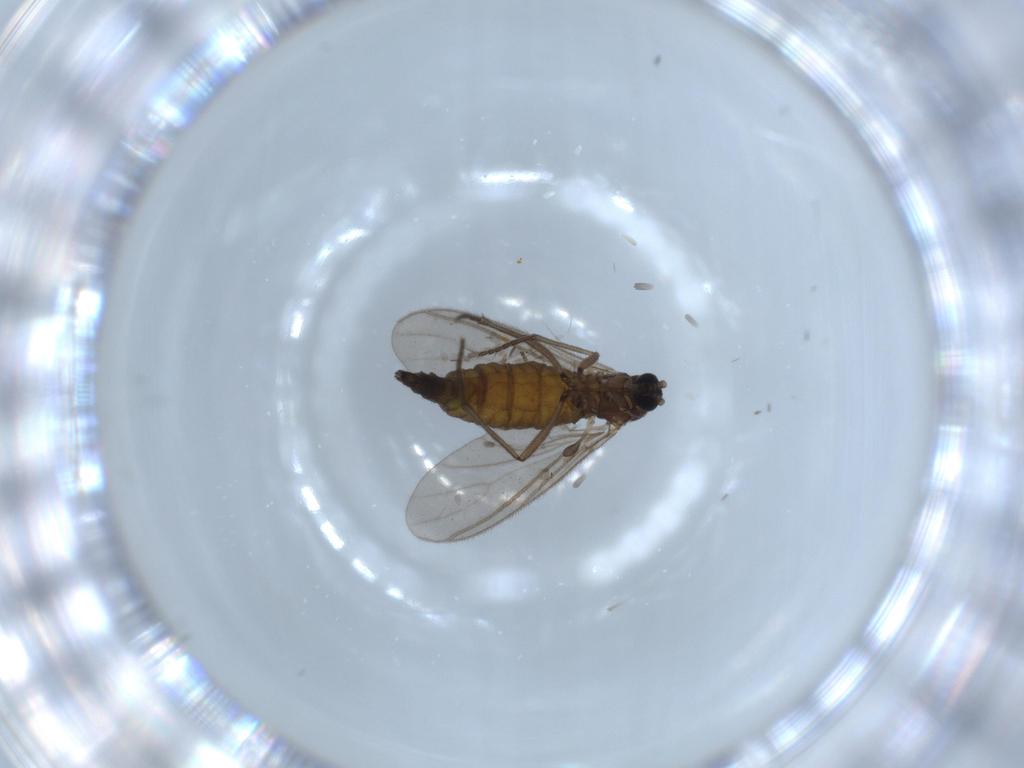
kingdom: Animalia
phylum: Arthropoda
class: Insecta
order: Diptera
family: Sciaridae
